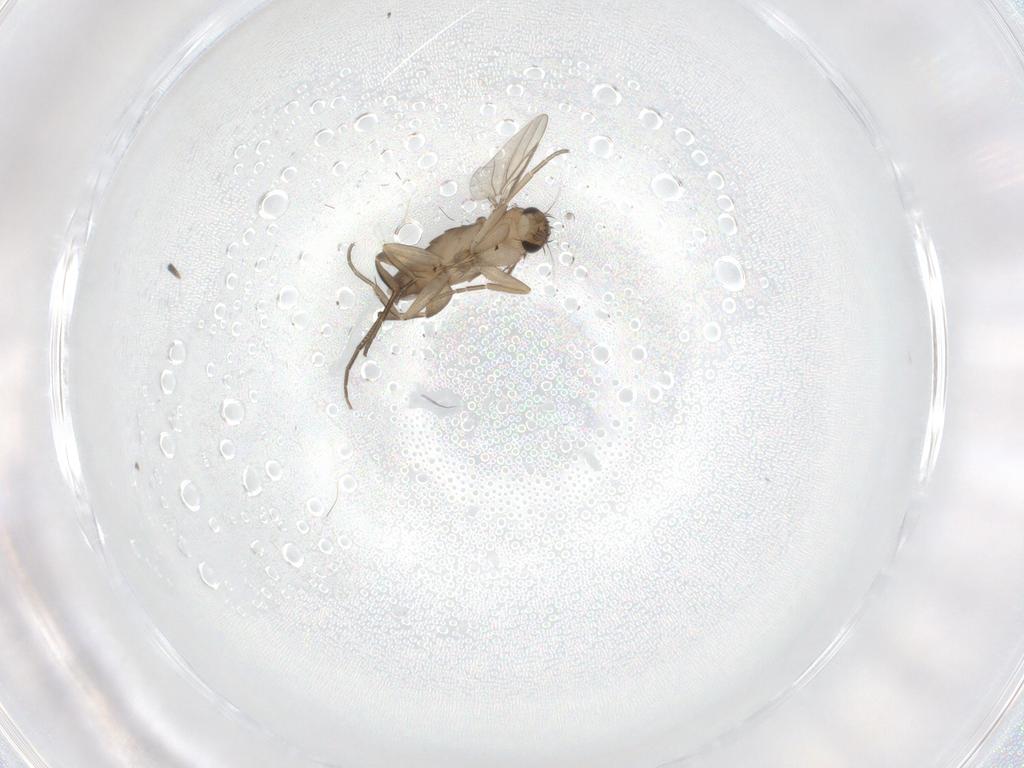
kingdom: Animalia
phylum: Arthropoda
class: Insecta
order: Diptera
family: Phoridae
